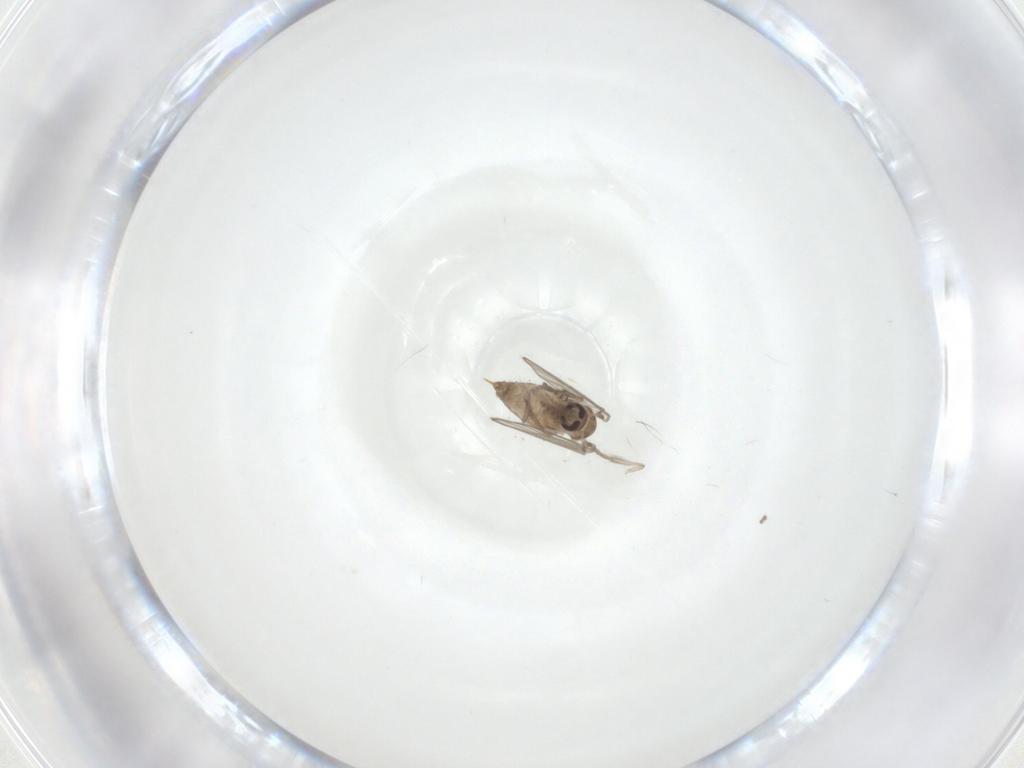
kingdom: Animalia
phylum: Arthropoda
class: Insecta
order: Diptera
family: Psychodidae
